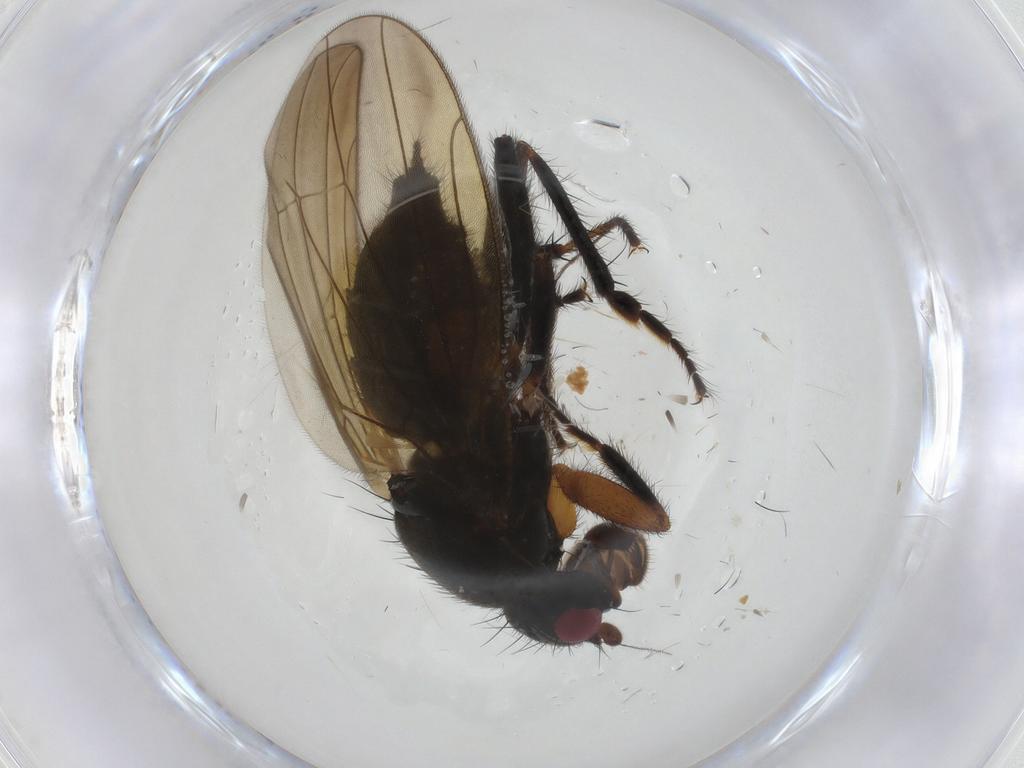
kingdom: Animalia
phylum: Arthropoda
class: Insecta
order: Diptera
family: Sphaeroceridae
